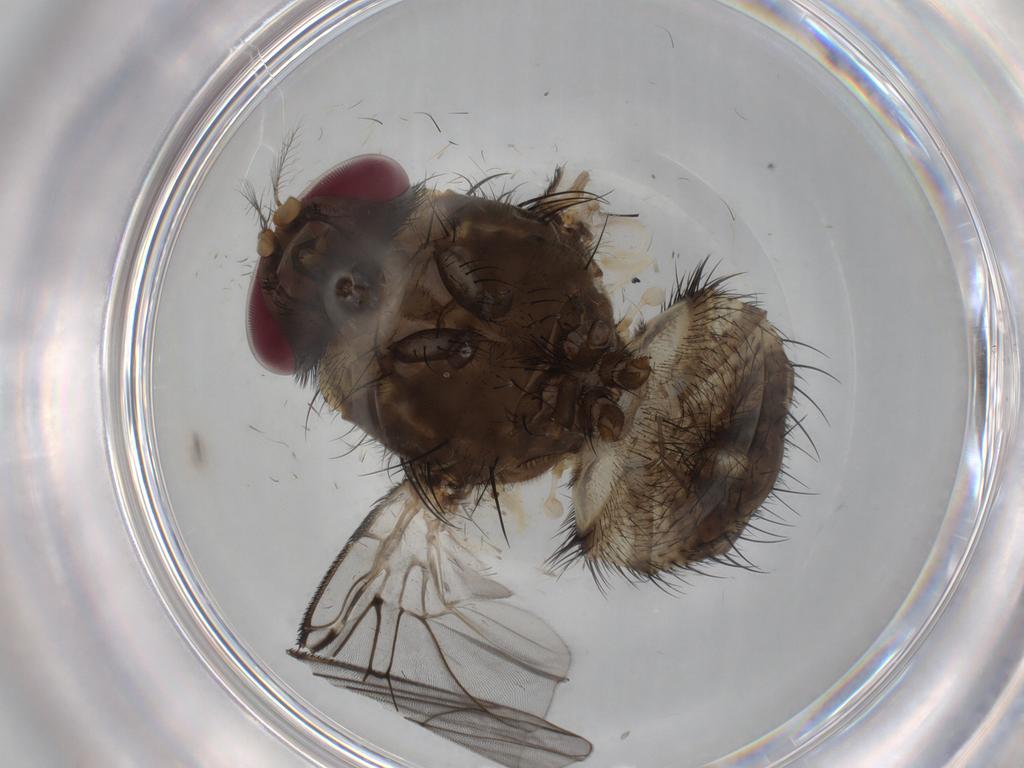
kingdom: Animalia
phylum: Arthropoda
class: Insecta
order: Diptera
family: Muscidae
